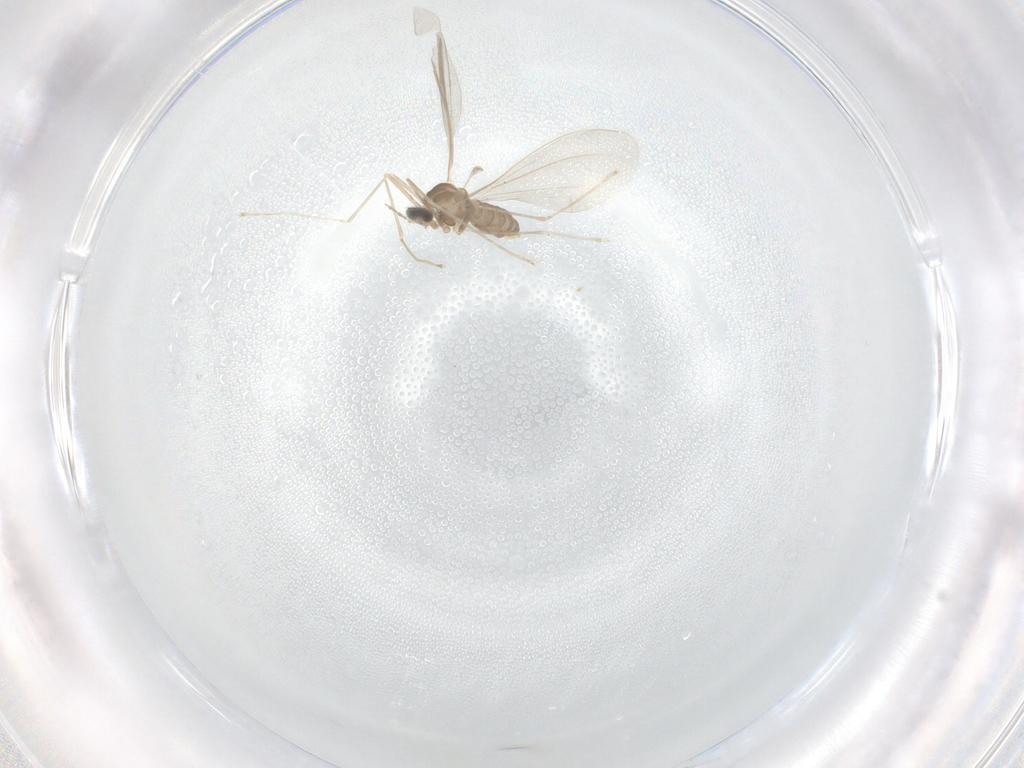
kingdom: Animalia
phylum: Arthropoda
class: Insecta
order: Diptera
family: Cecidomyiidae
